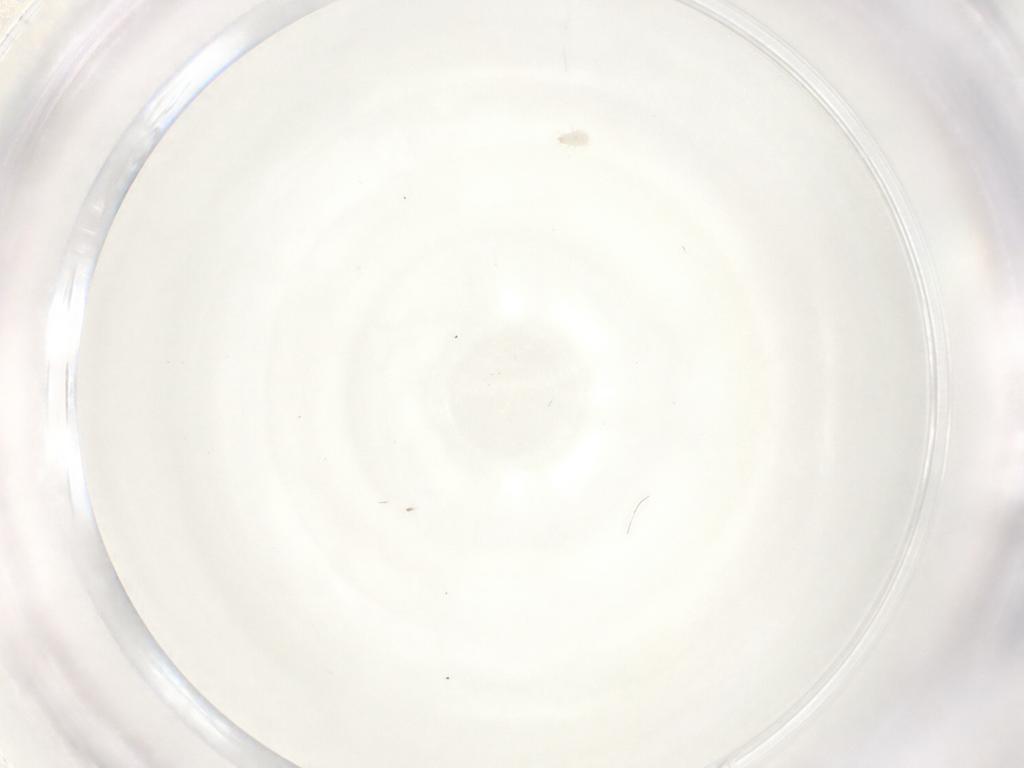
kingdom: Animalia
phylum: Arthropoda
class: Arachnida
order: Sarcoptiformes
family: Acaridae
